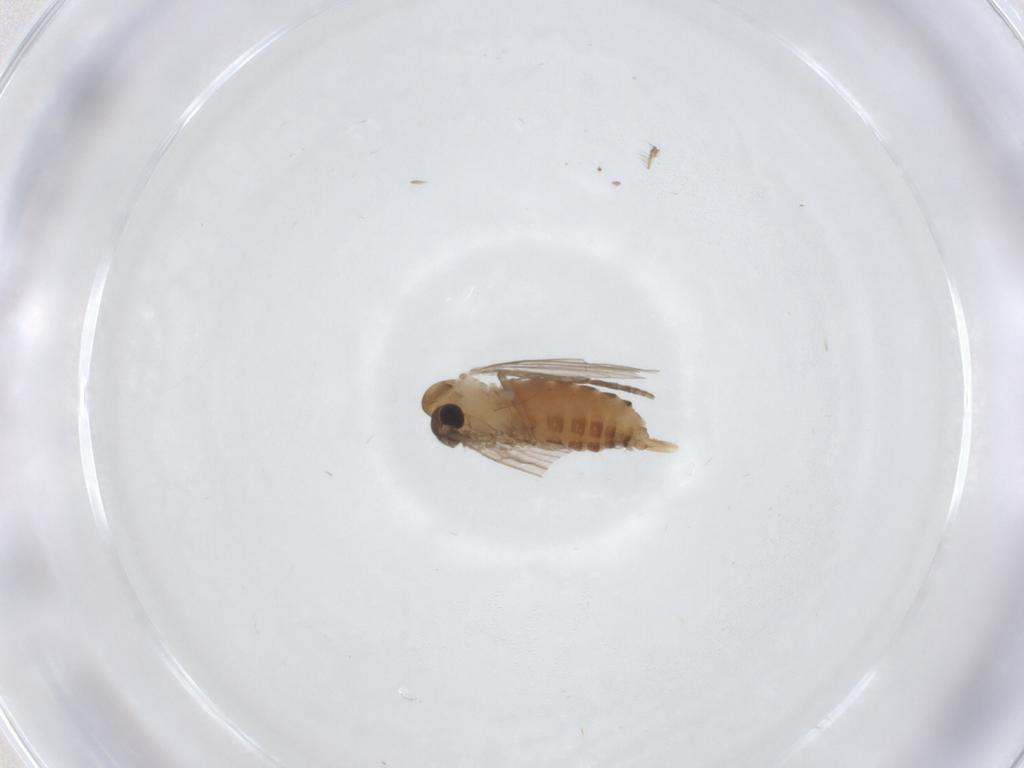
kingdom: Animalia
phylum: Arthropoda
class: Insecta
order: Diptera
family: Psychodidae
